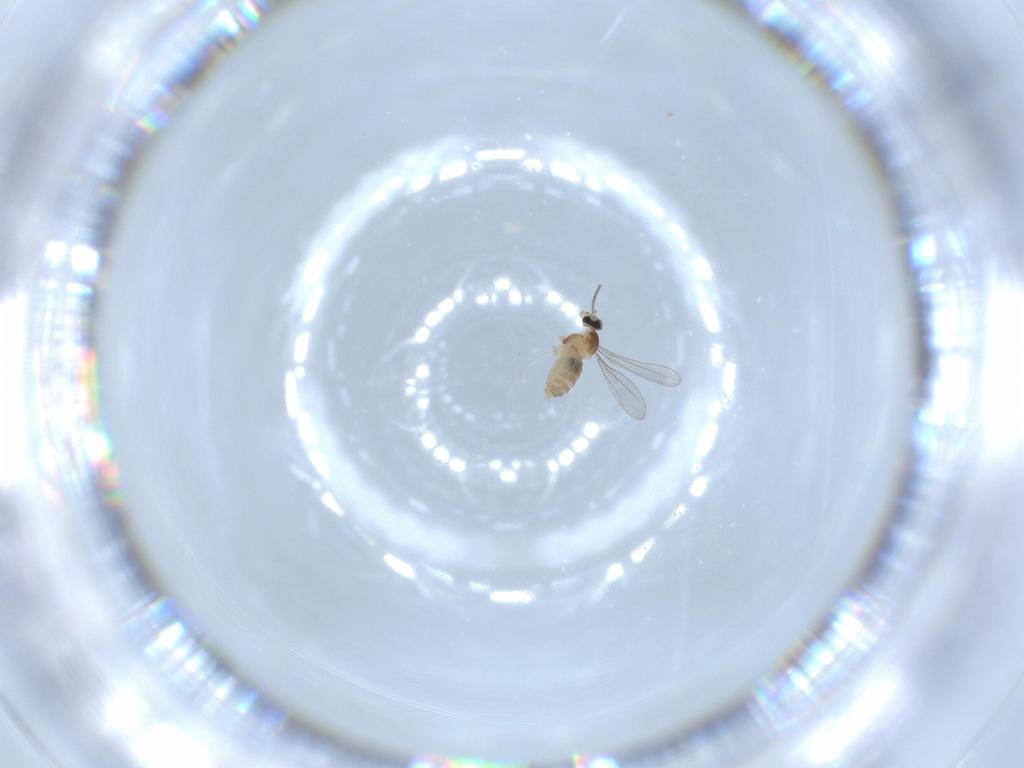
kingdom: Animalia
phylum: Arthropoda
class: Insecta
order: Diptera
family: Cecidomyiidae
